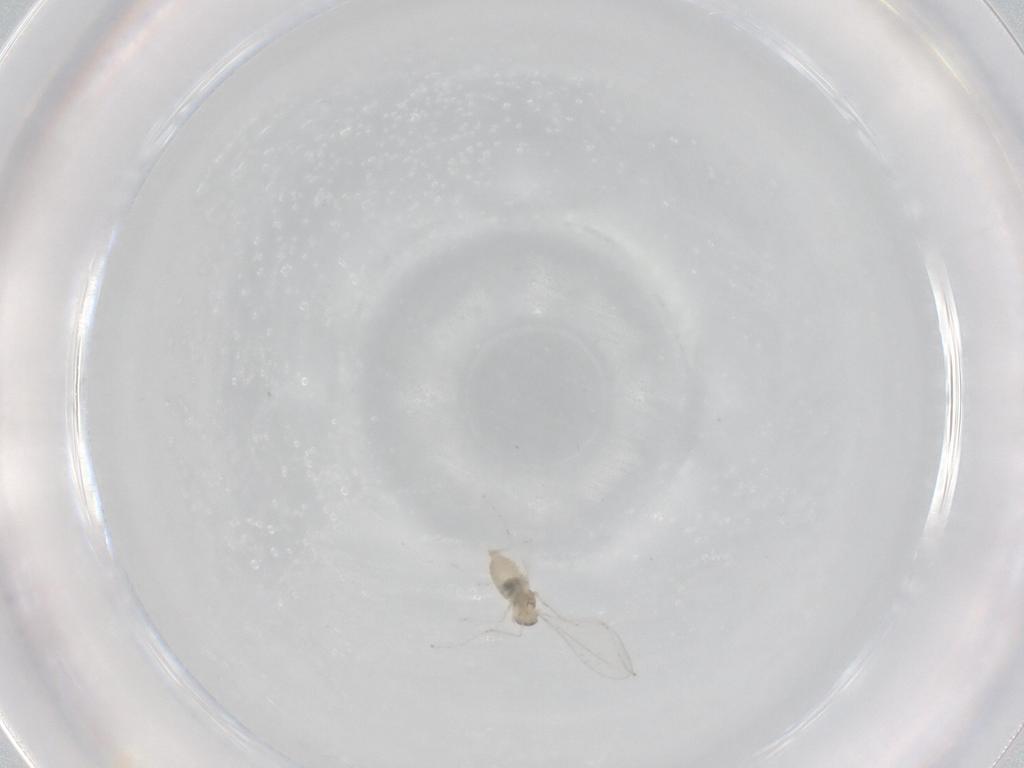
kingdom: Animalia
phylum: Arthropoda
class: Insecta
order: Diptera
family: Cecidomyiidae
